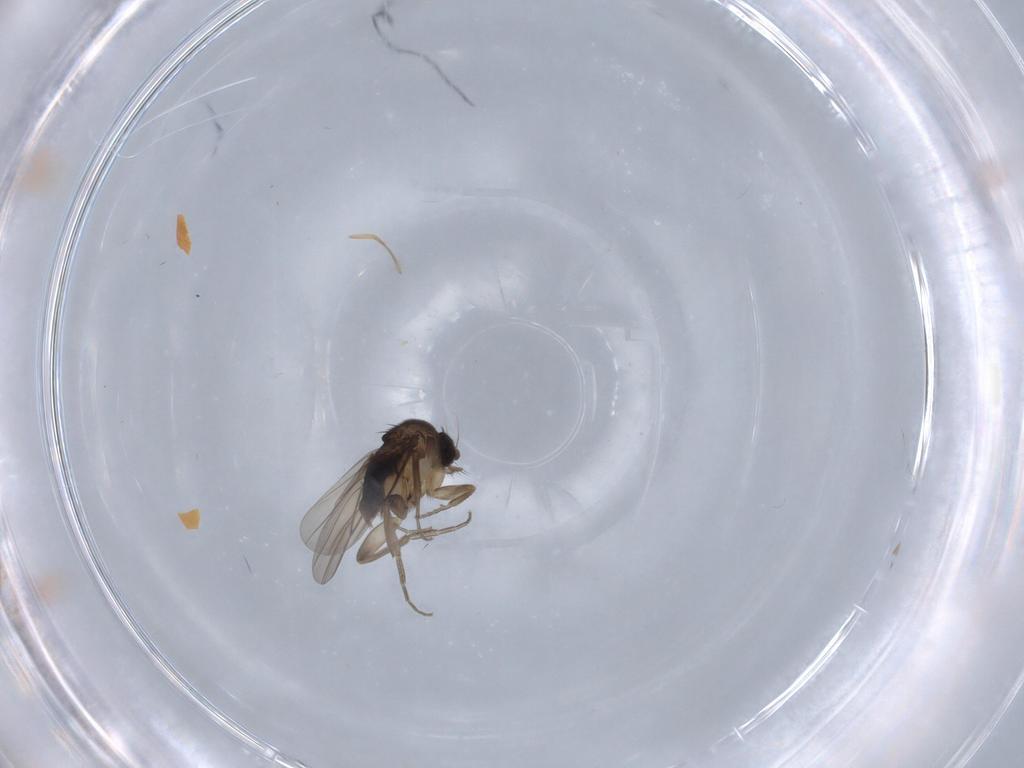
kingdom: Animalia
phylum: Arthropoda
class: Insecta
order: Diptera
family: Phoridae
